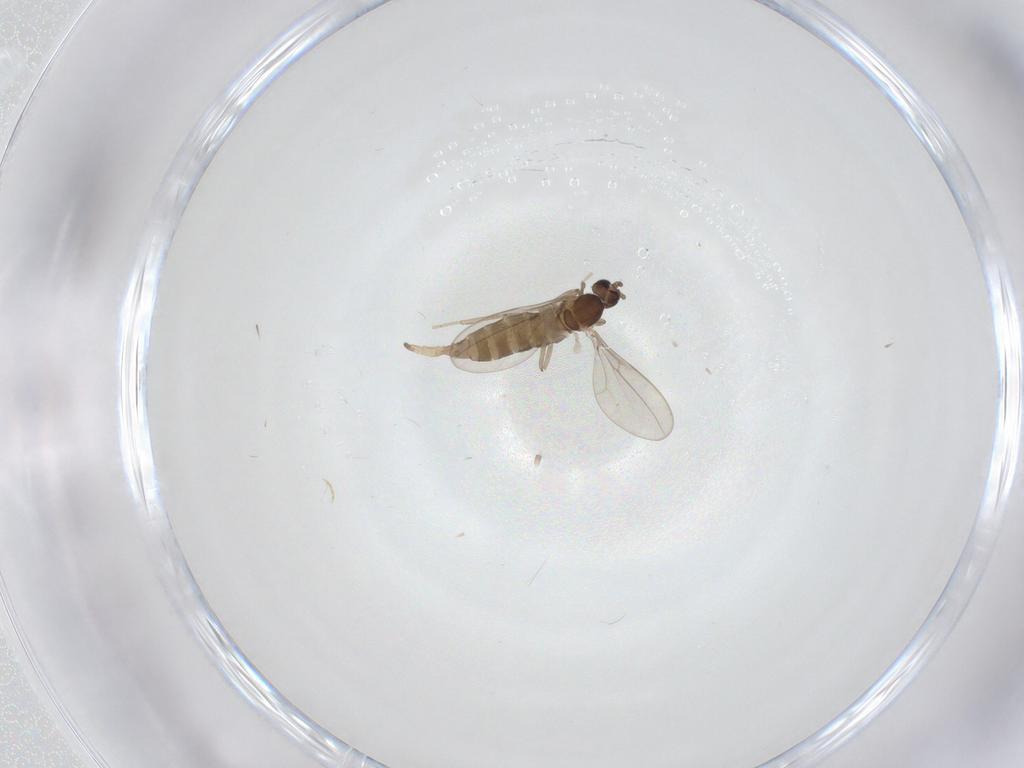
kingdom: Animalia
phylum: Arthropoda
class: Insecta
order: Diptera
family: Cecidomyiidae
